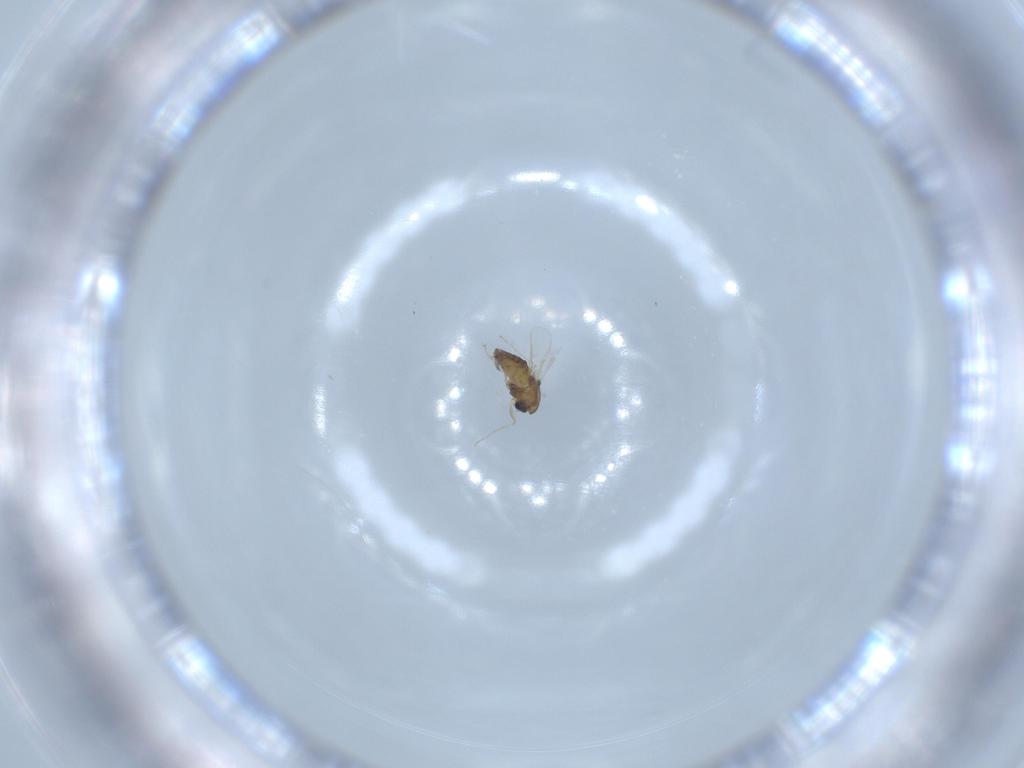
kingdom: Animalia
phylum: Arthropoda
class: Insecta
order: Diptera
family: Chironomidae
